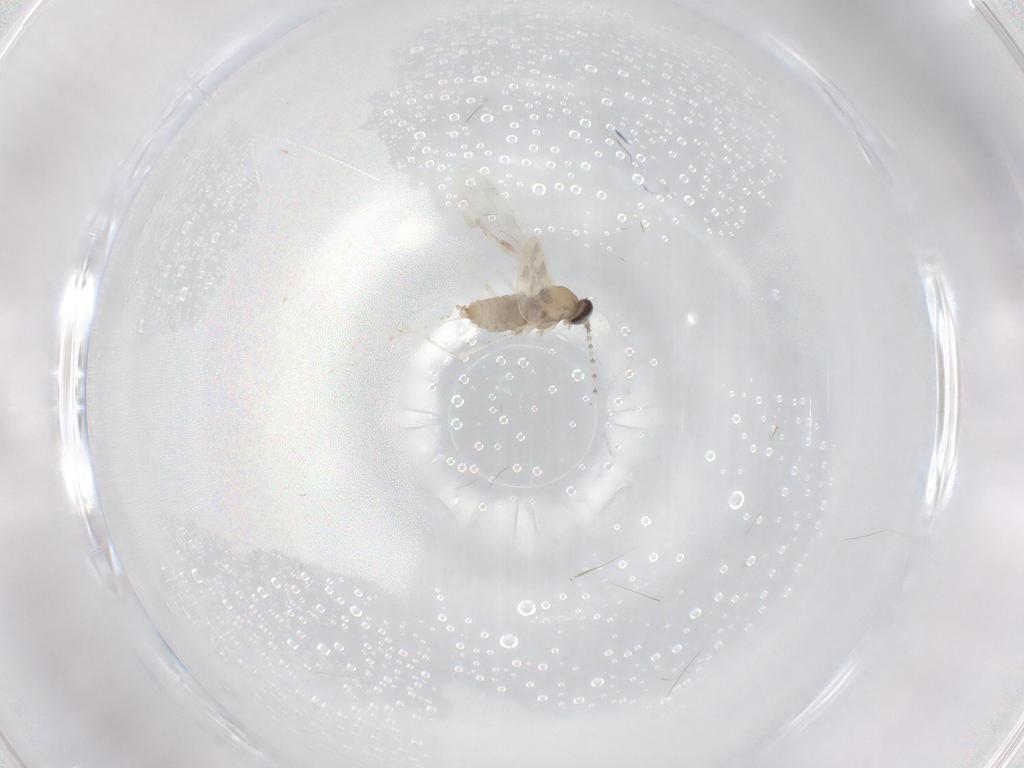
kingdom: Animalia
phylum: Arthropoda
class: Insecta
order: Diptera
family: Cecidomyiidae
